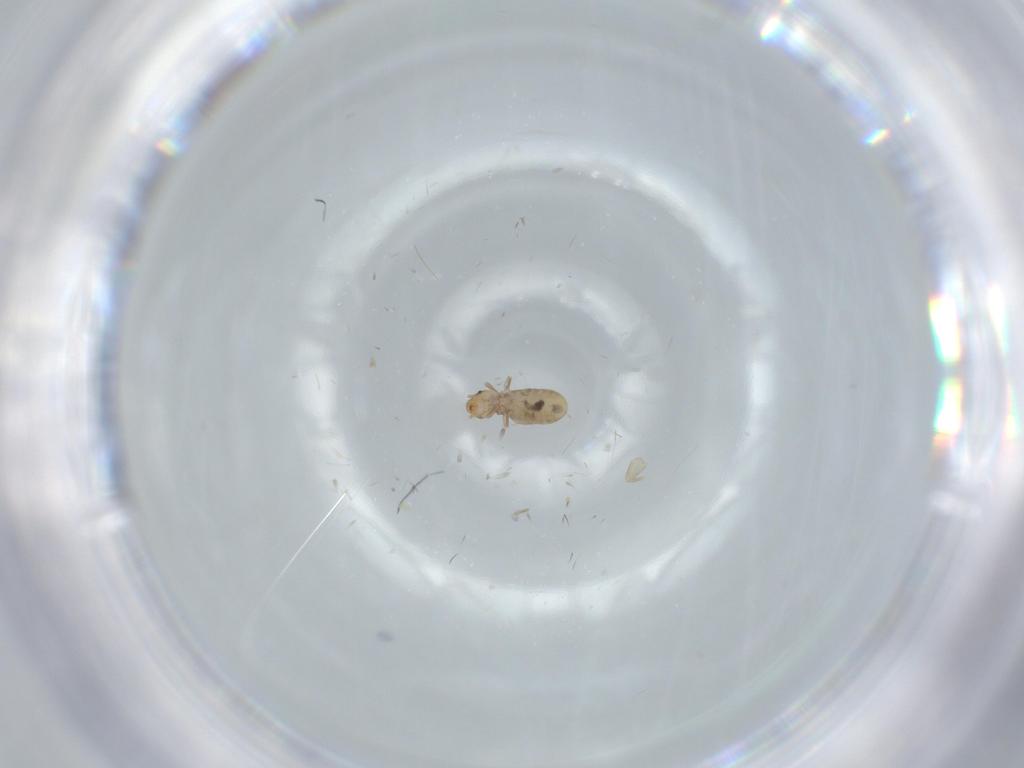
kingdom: Animalia
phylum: Arthropoda
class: Insecta
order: Psocodea
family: Liposcelididae
